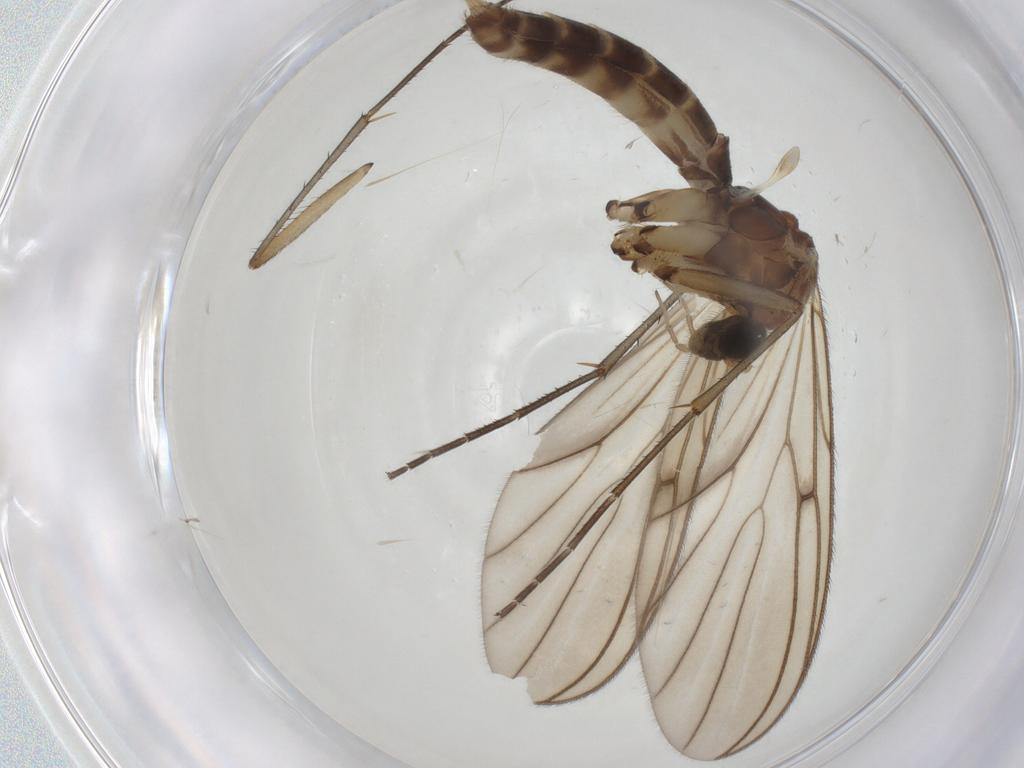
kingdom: Animalia
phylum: Arthropoda
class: Insecta
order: Diptera
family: Mycetophilidae
